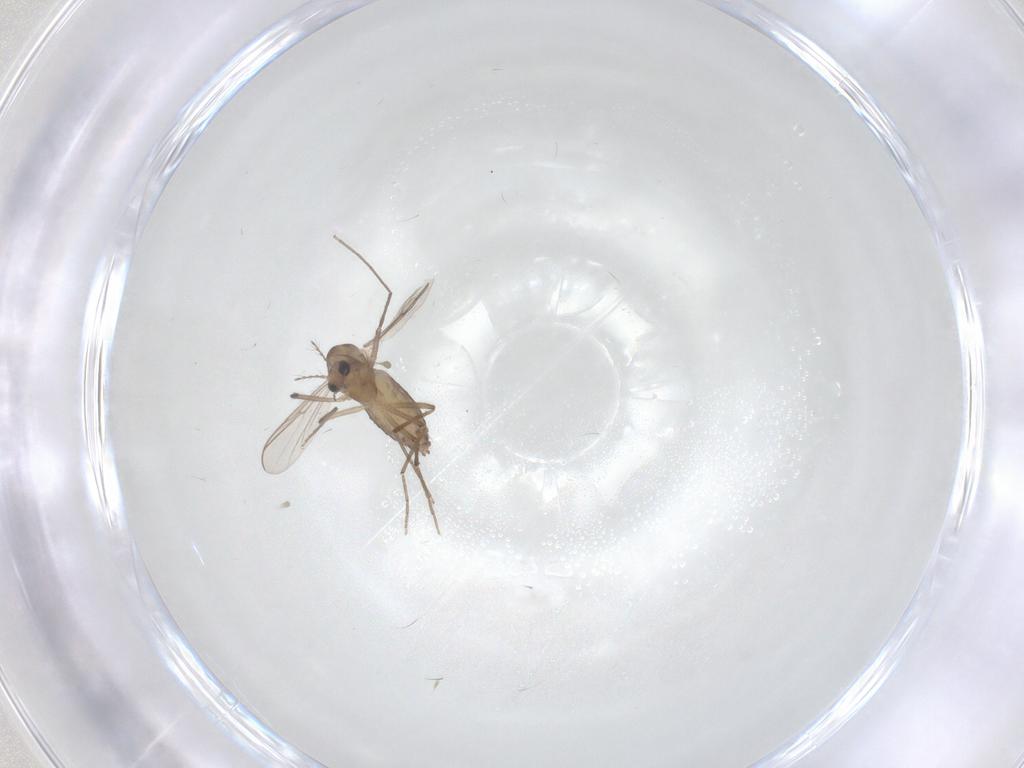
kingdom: Animalia
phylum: Arthropoda
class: Insecta
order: Diptera
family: Chironomidae
